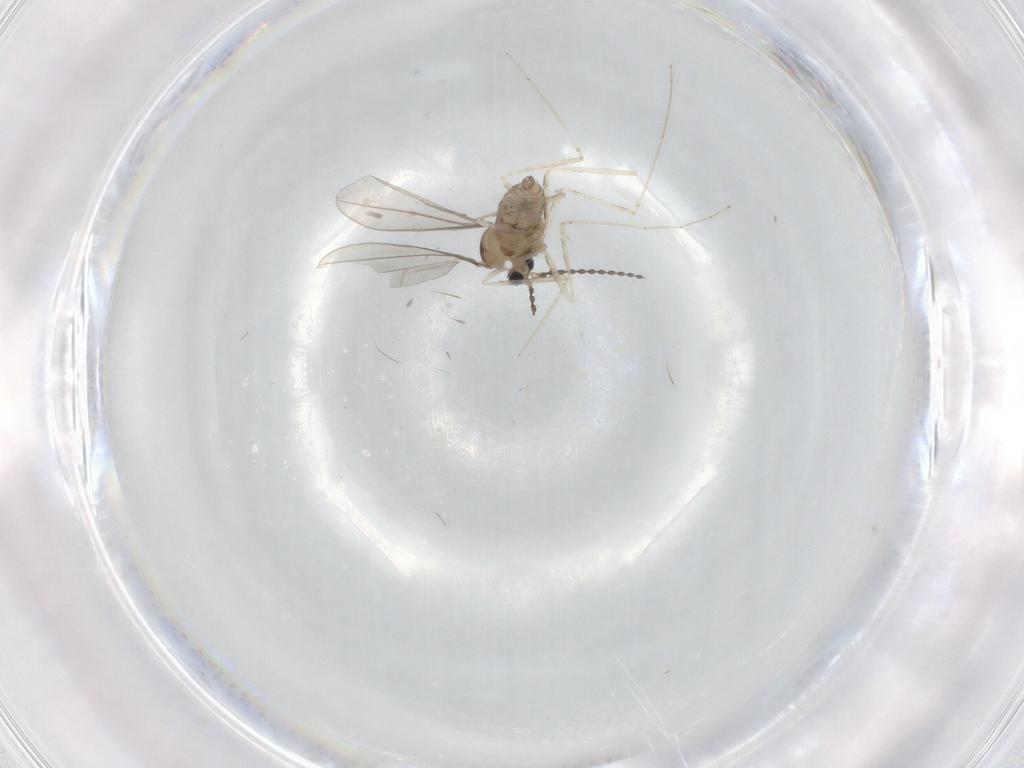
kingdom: Animalia
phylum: Arthropoda
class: Insecta
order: Diptera
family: Cecidomyiidae
